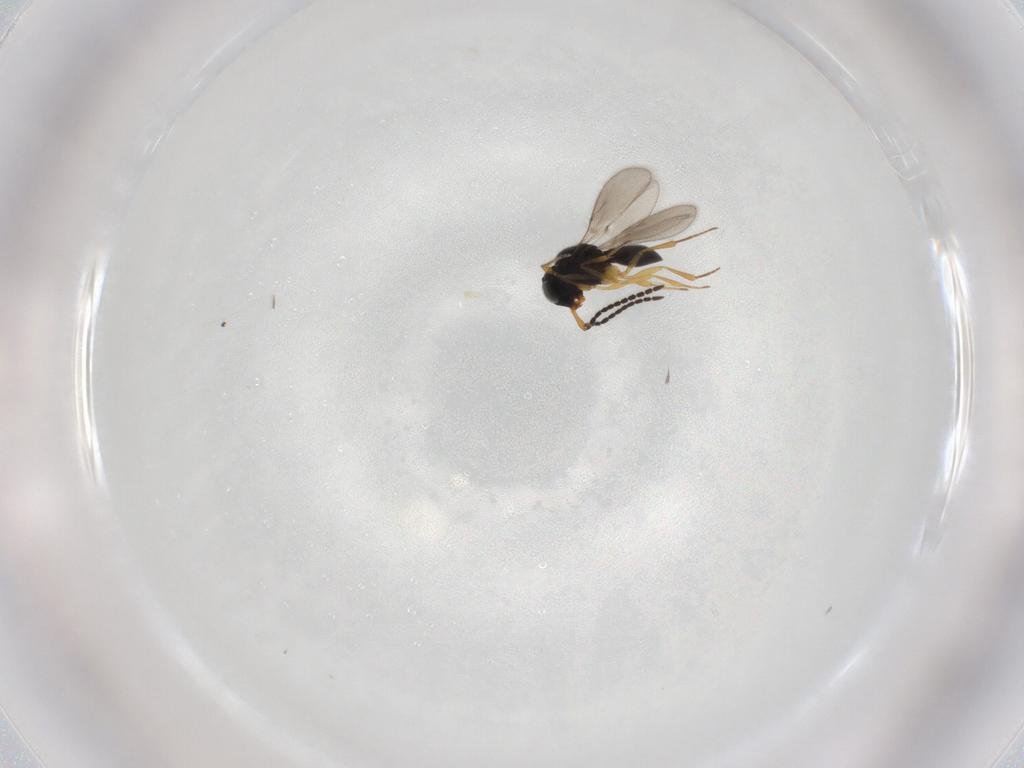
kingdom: Animalia
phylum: Arthropoda
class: Insecta
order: Hymenoptera
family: Scelionidae
